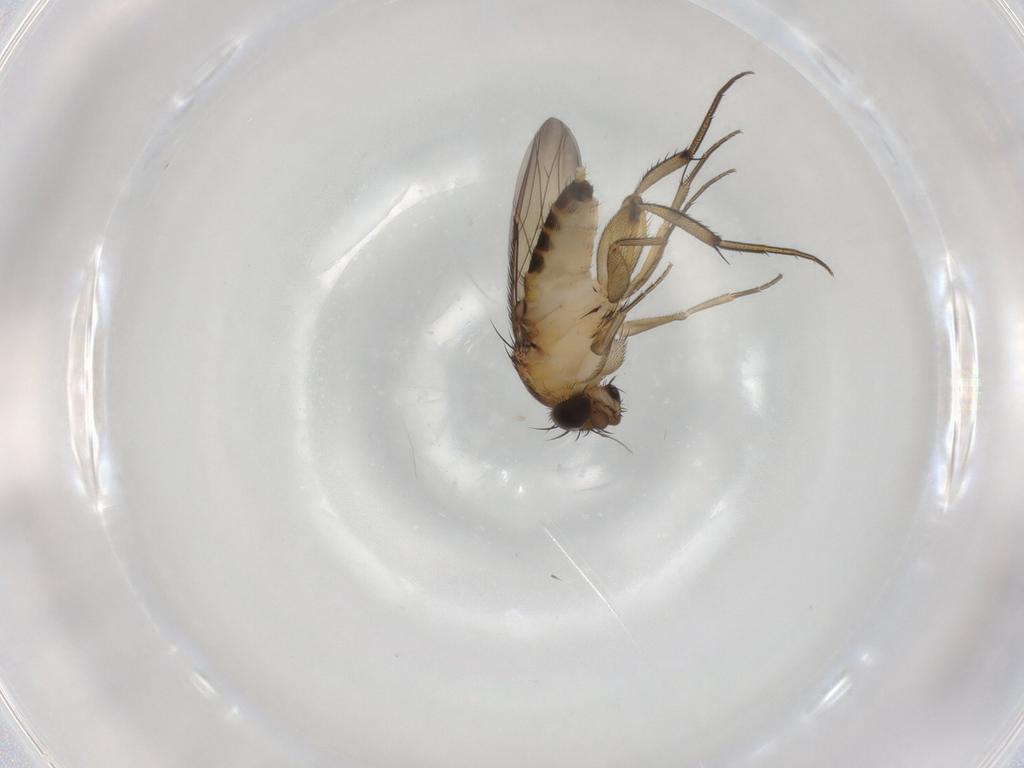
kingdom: Animalia
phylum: Arthropoda
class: Insecta
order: Diptera
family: Phoridae
